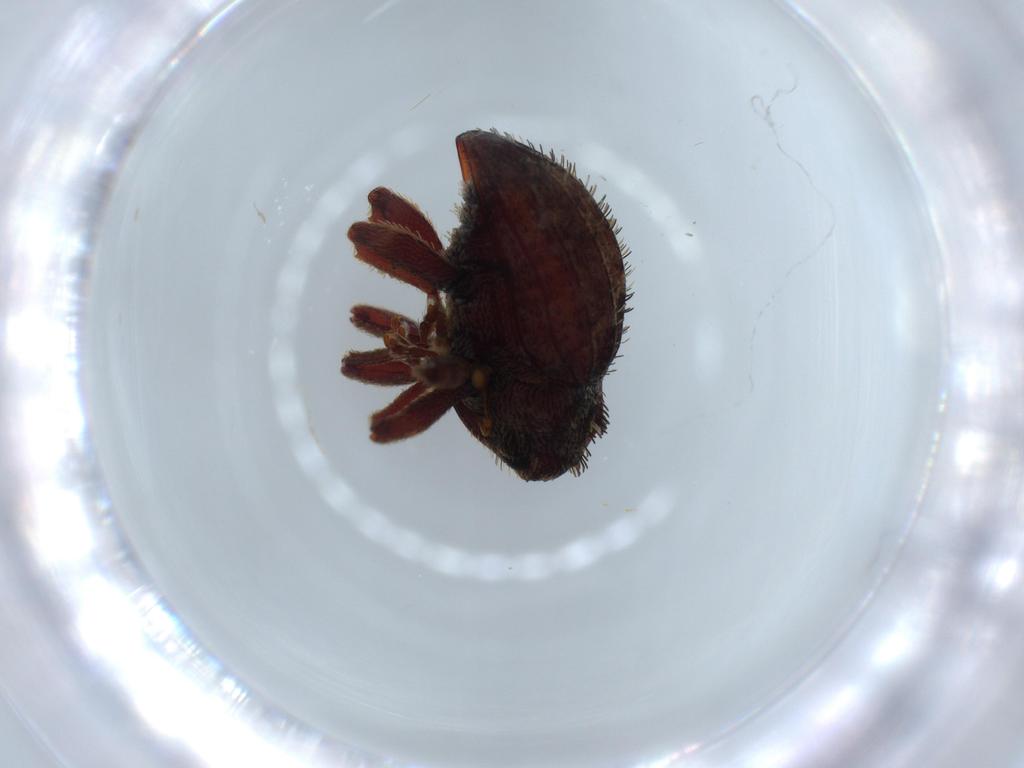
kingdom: Animalia
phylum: Arthropoda
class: Insecta
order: Coleoptera
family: Curculionidae
